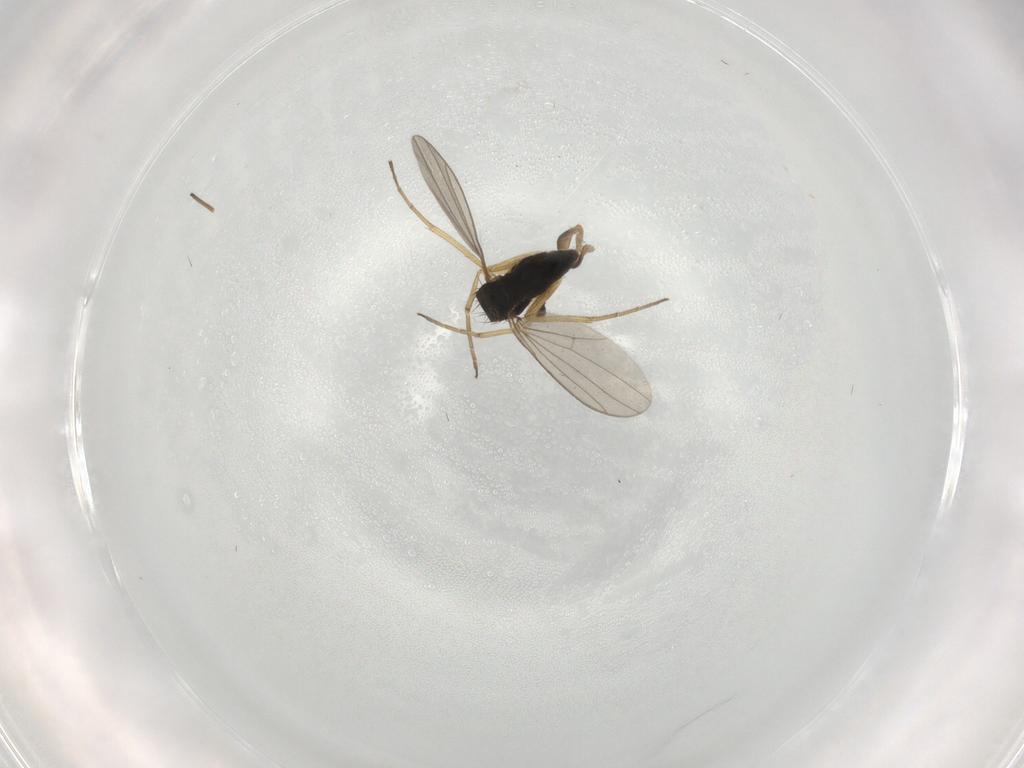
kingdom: Animalia
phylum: Arthropoda
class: Insecta
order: Diptera
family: Dolichopodidae
